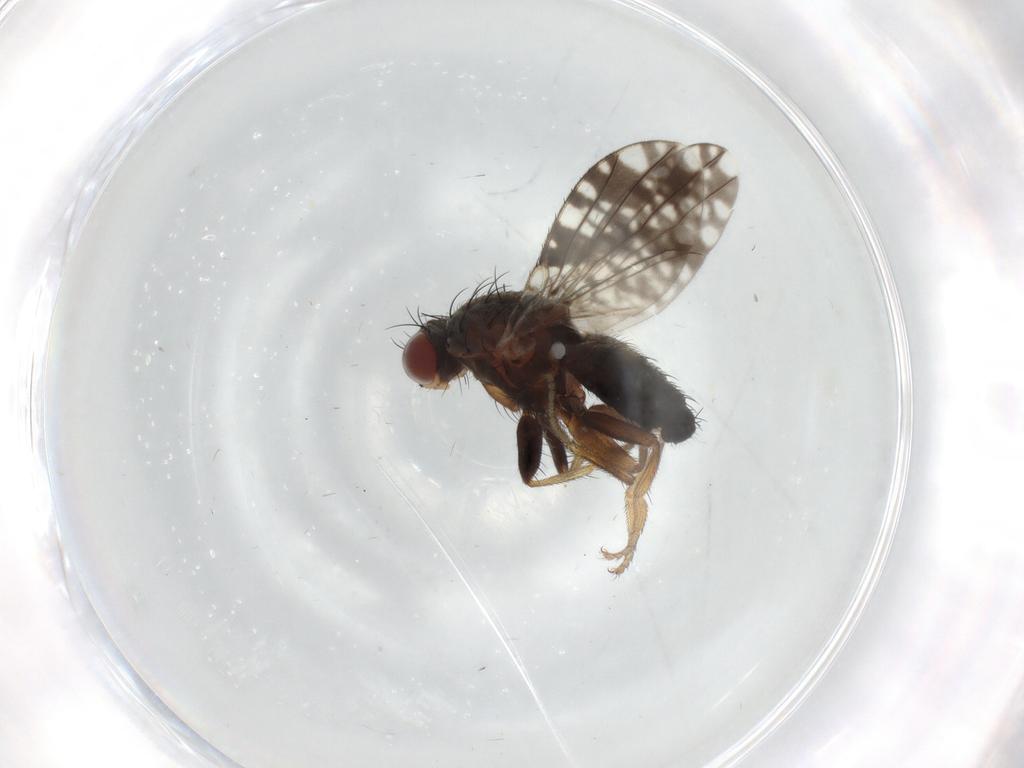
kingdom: Animalia
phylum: Arthropoda
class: Insecta
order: Diptera
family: Tephritidae
